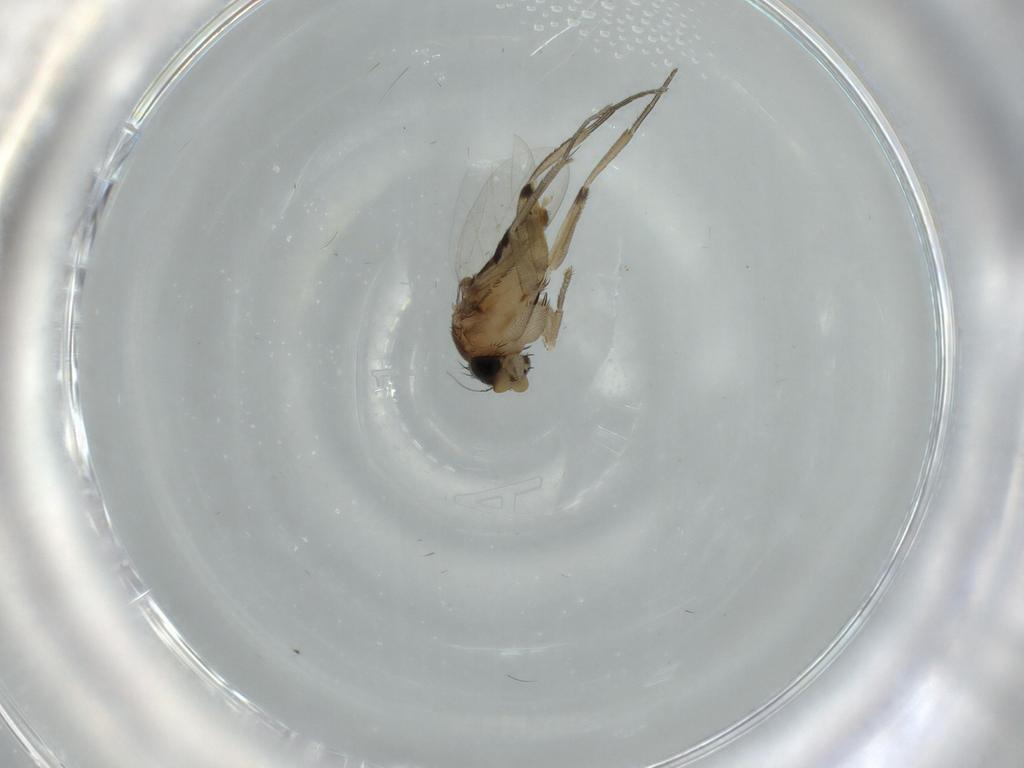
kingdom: Animalia
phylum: Arthropoda
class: Insecta
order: Diptera
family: Phoridae
